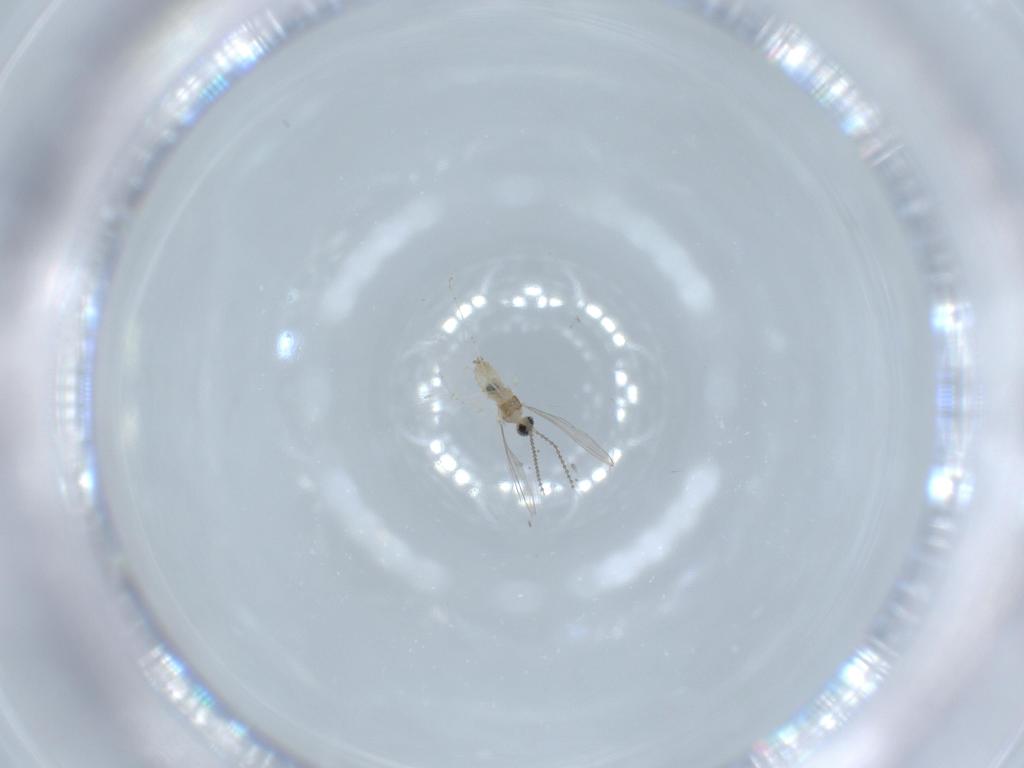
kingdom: Animalia
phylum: Arthropoda
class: Insecta
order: Diptera
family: Cecidomyiidae
